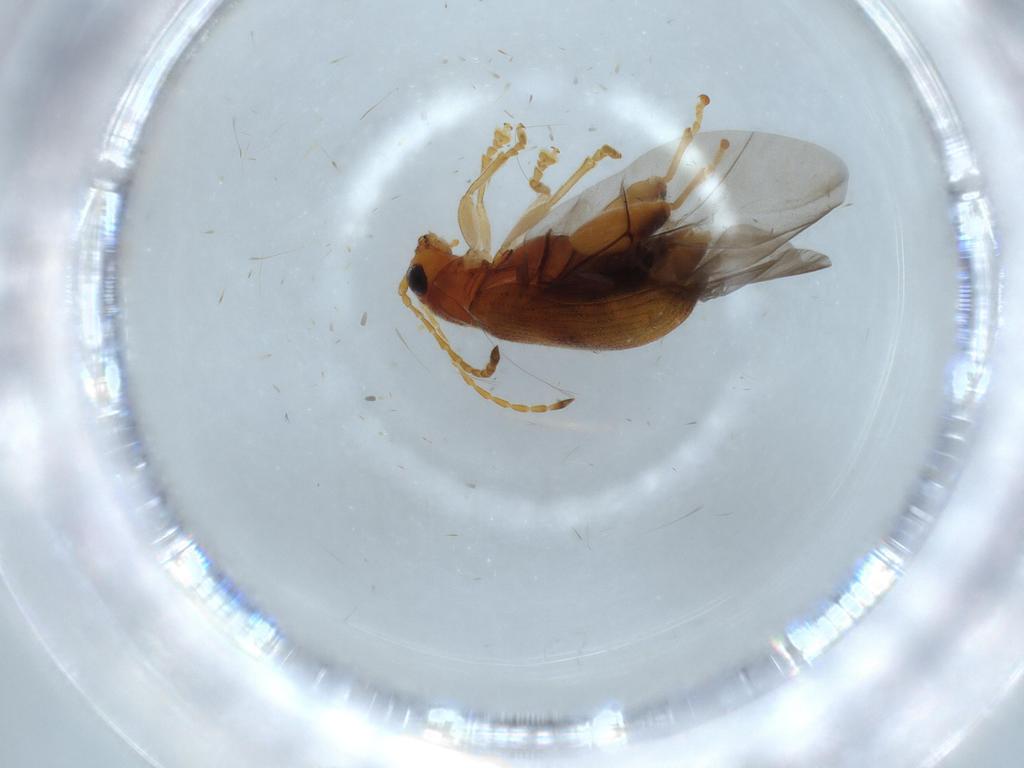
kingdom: Animalia
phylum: Arthropoda
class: Insecta
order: Coleoptera
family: Chrysomelidae
